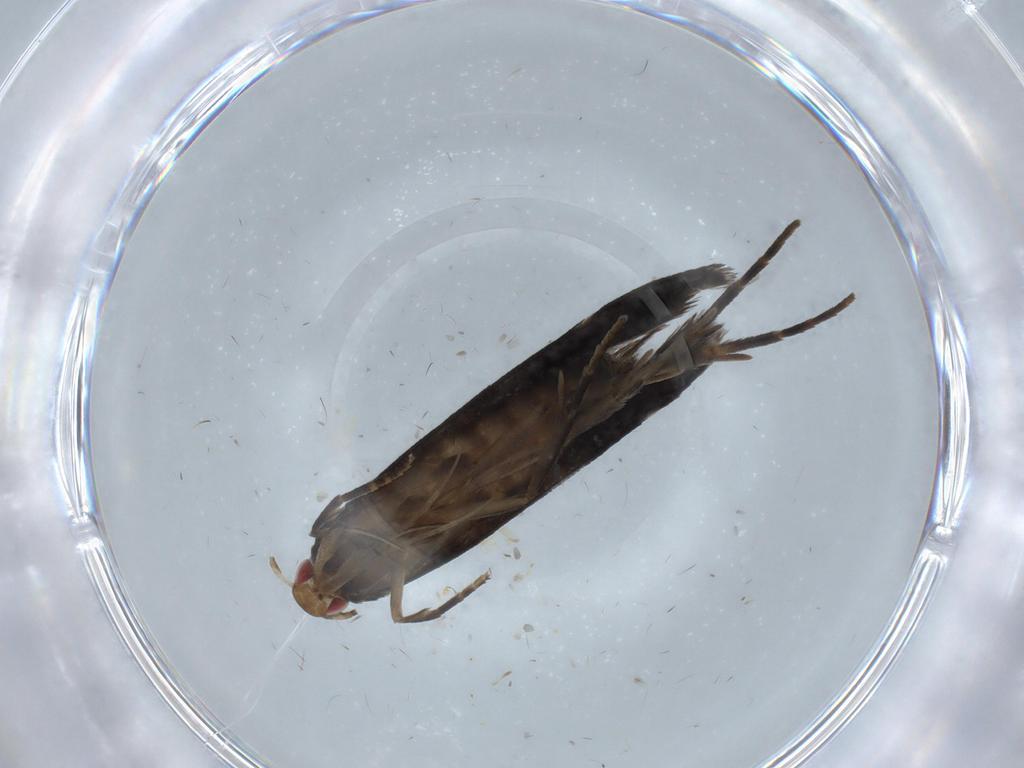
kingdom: Animalia
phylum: Arthropoda
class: Insecta
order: Lepidoptera
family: Gelechiidae
